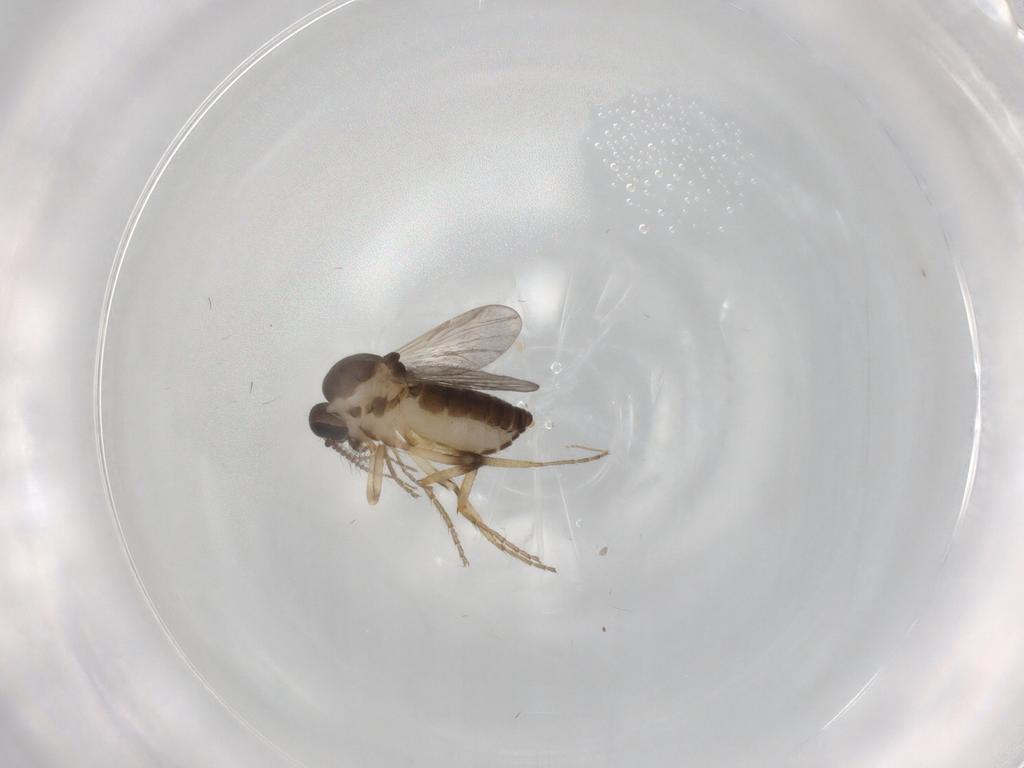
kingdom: Animalia
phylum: Arthropoda
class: Insecta
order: Diptera
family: Ceratopogonidae
